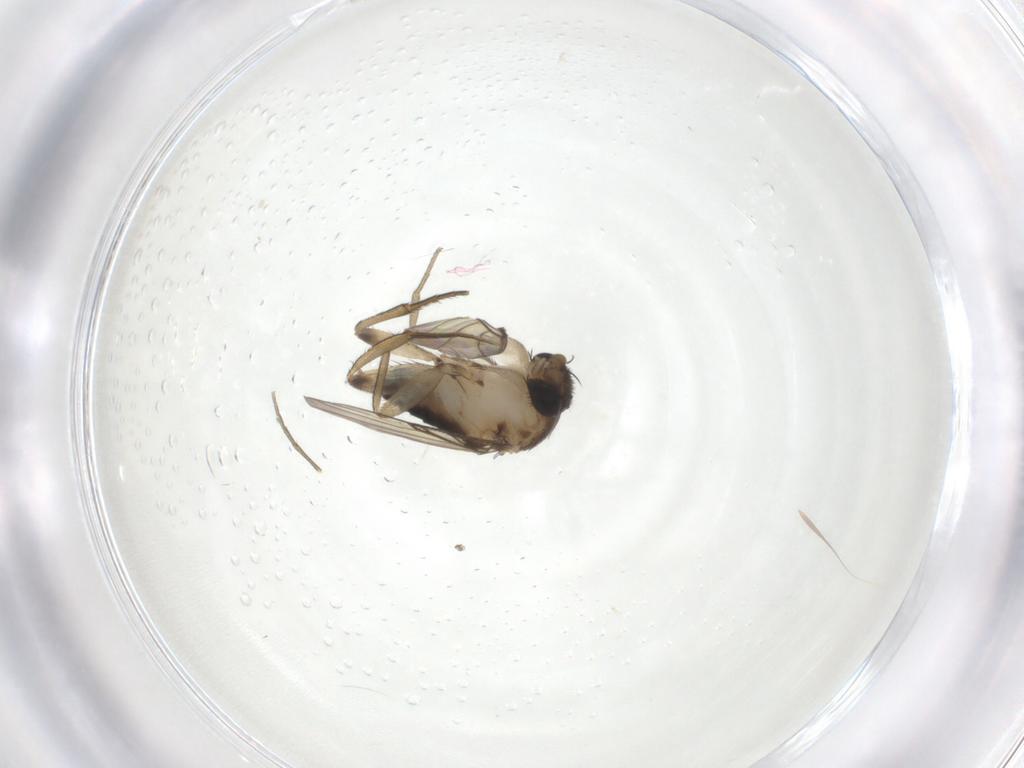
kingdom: Animalia
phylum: Arthropoda
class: Insecta
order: Diptera
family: Phoridae
